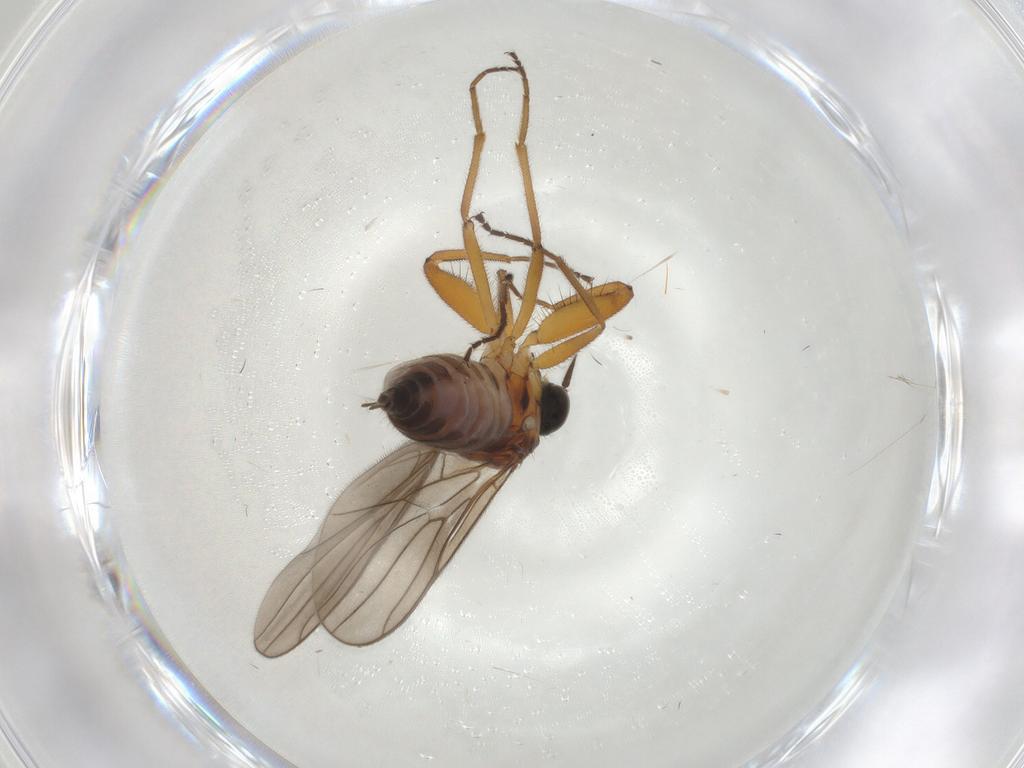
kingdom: Animalia
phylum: Arthropoda
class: Insecta
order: Diptera
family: Hybotidae
